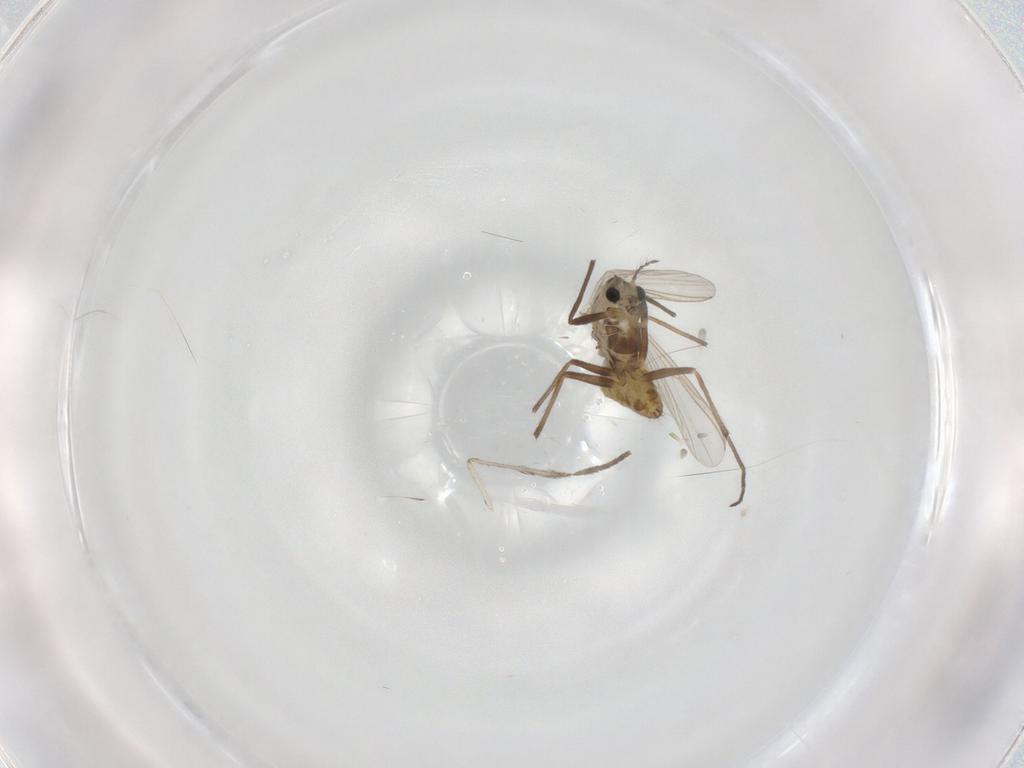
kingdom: Animalia
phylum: Arthropoda
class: Insecta
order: Diptera
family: Chironomidae
